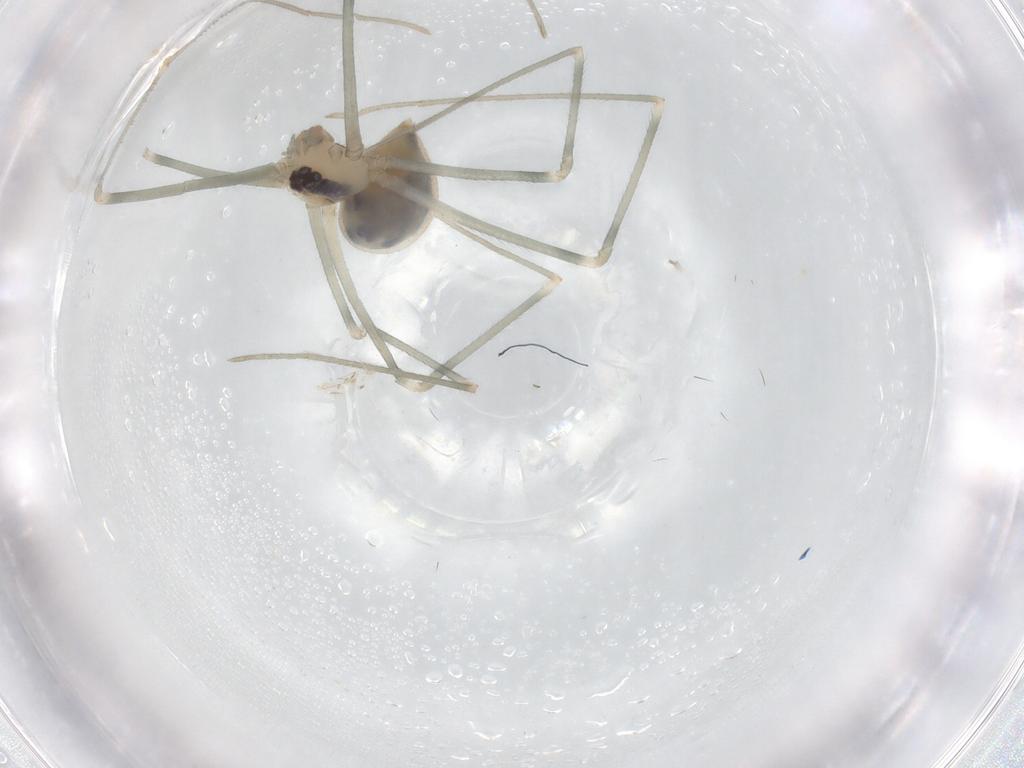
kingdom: Animalia
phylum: Arthropoda
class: Arachnida
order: Araneae
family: Pholcidae
